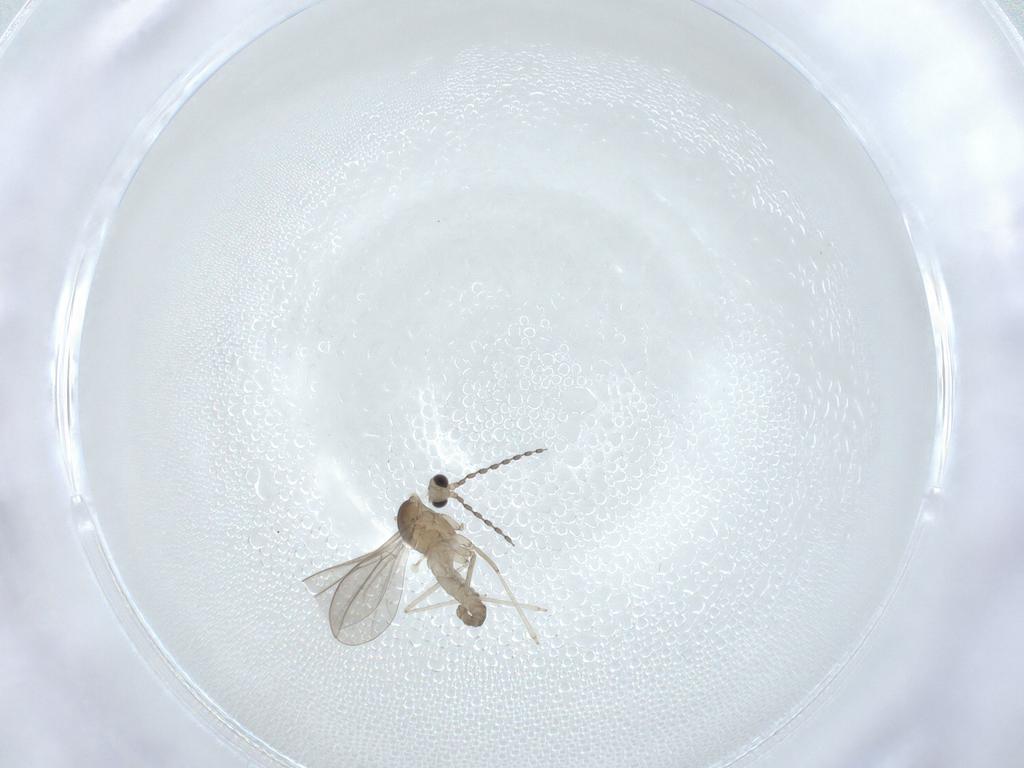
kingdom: Animalia
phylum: Arthropoda
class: Insecta
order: Diptera
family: Cecidomyiidae
